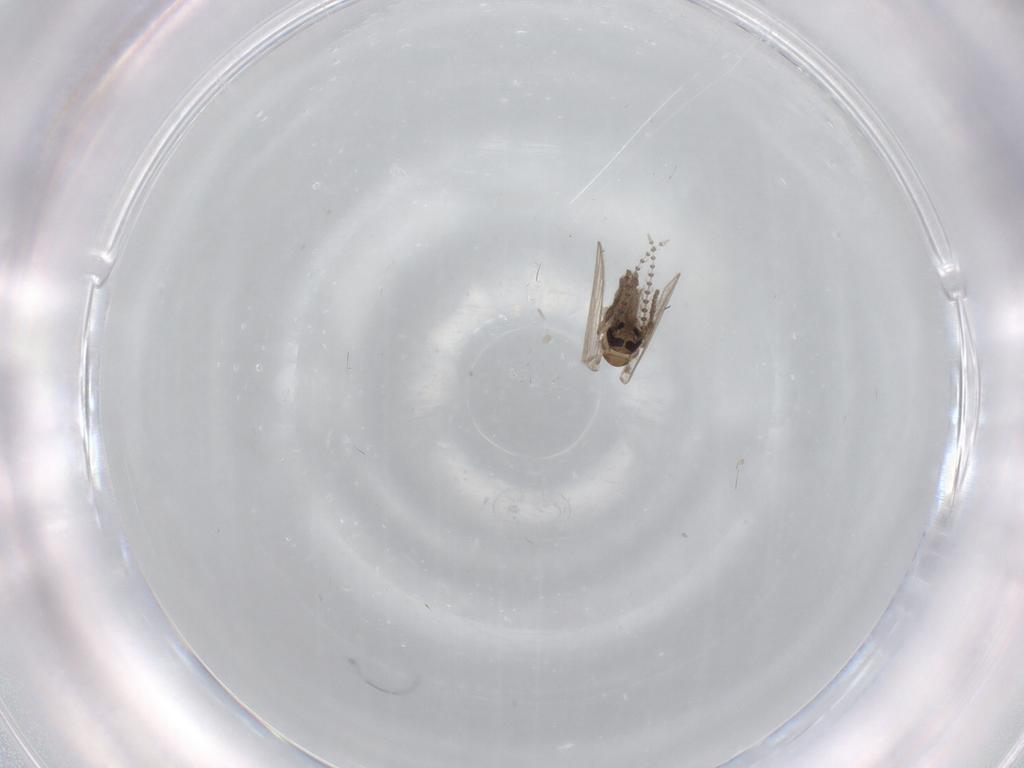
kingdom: Animalia
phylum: Arthropoda
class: Insecta
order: Diptera
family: Psychodidae
